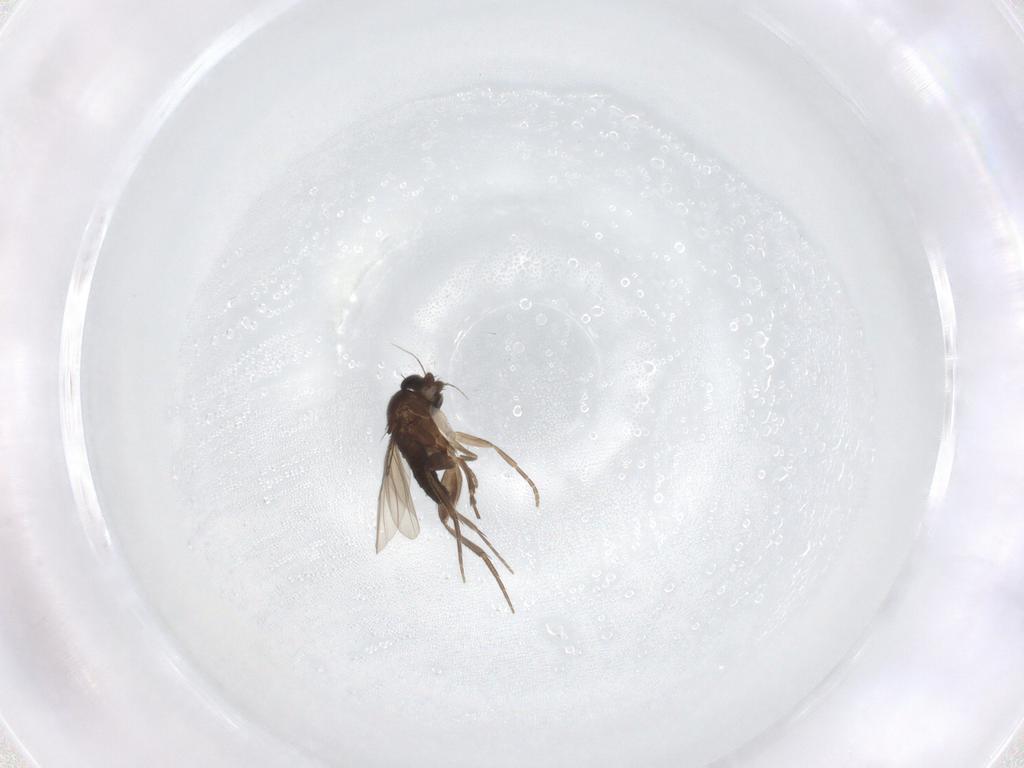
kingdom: Animalia
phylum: Arthropoda
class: Insecta
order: Diptera
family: Phoridae
